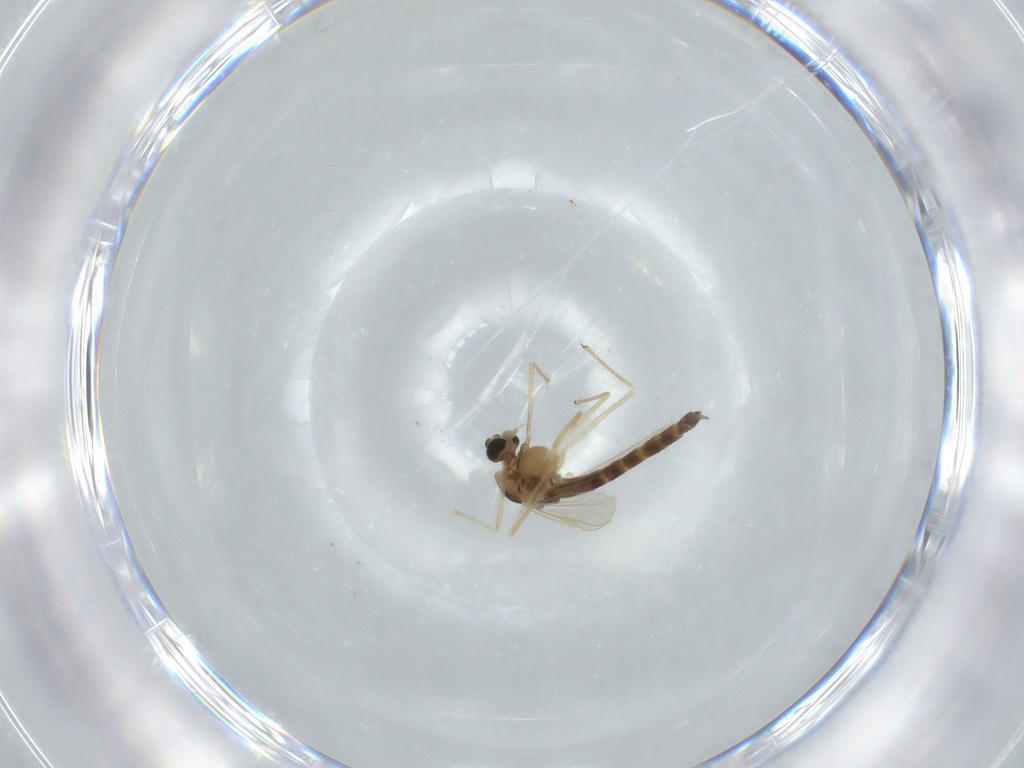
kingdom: Animalia
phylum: Arthropoda
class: Insecta
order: Diptera
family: Chironomidae
